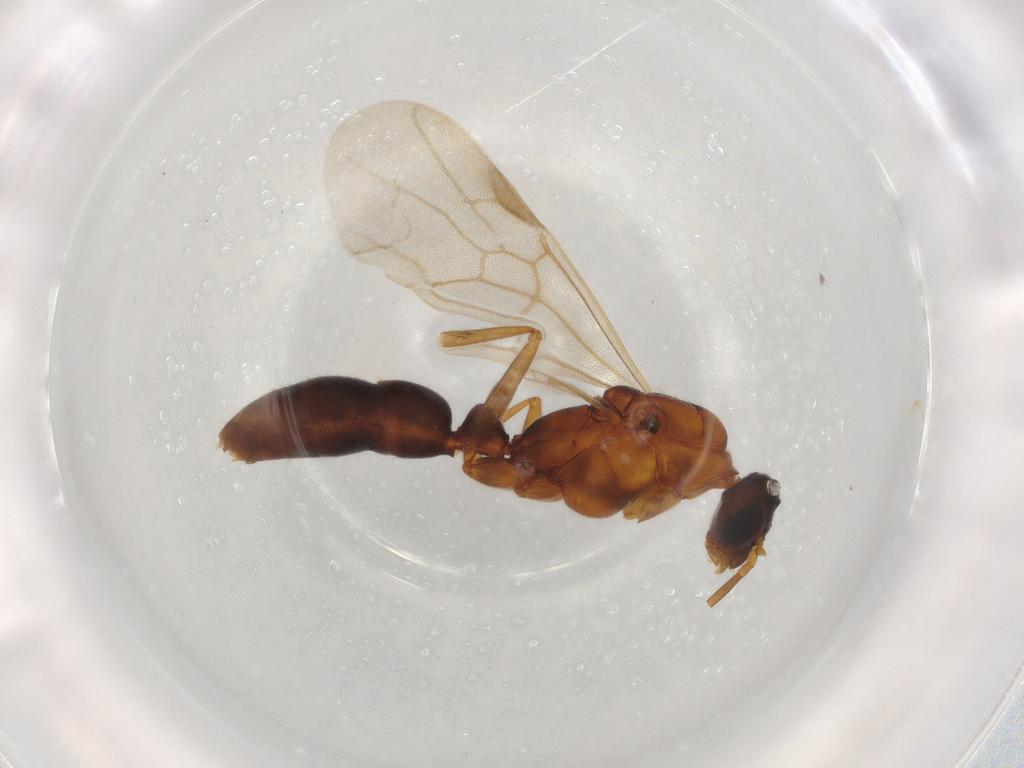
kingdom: Animalia
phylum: Arthropoda
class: Insecta
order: Hymenoptera
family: Formicidae
